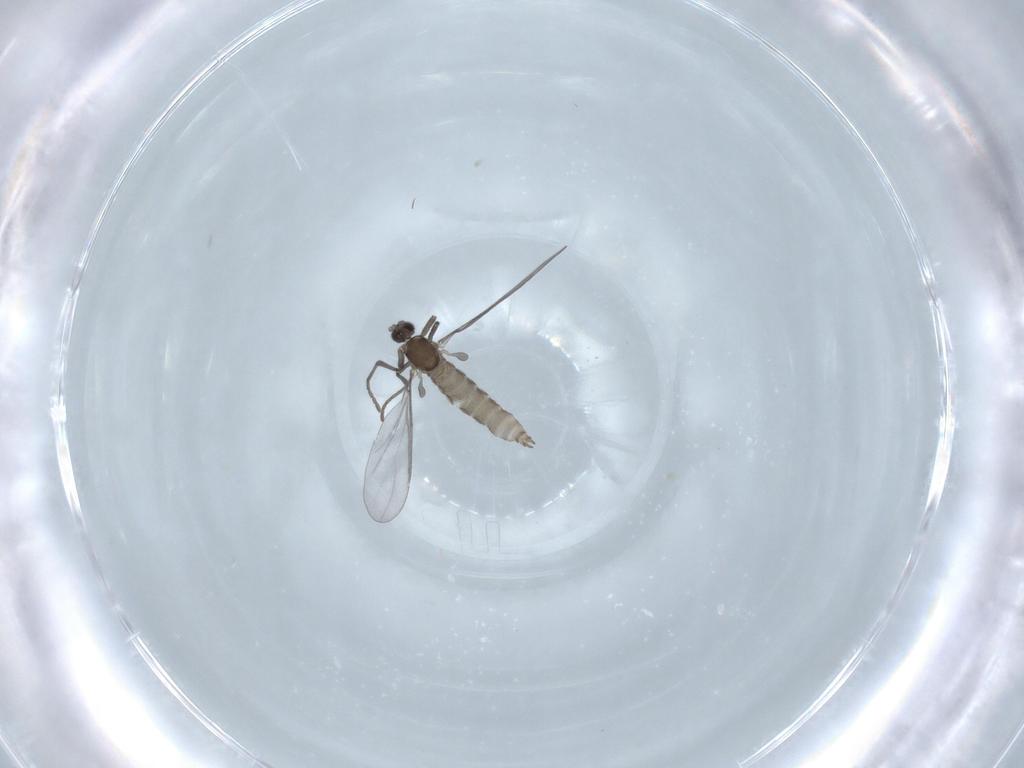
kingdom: Animalia
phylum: Arthropoda
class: Insecta
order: Diptera
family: Cecidomyiidae
